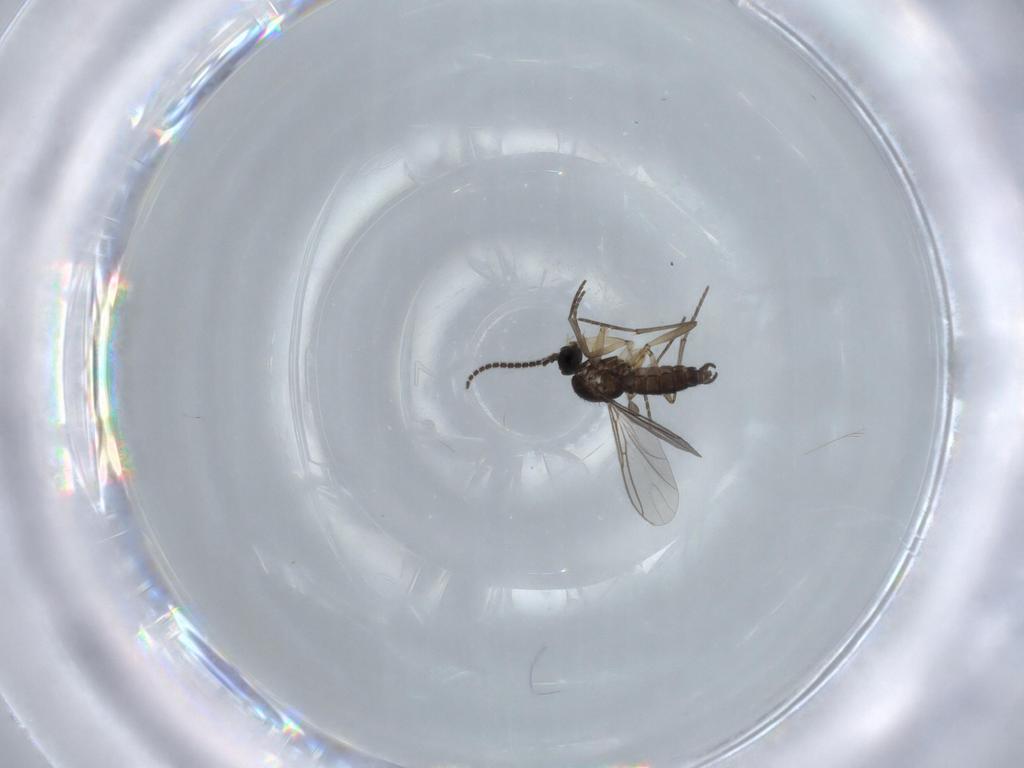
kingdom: Animalia
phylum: Arthropoda
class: Insecta
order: Diptera
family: Sciaridae
